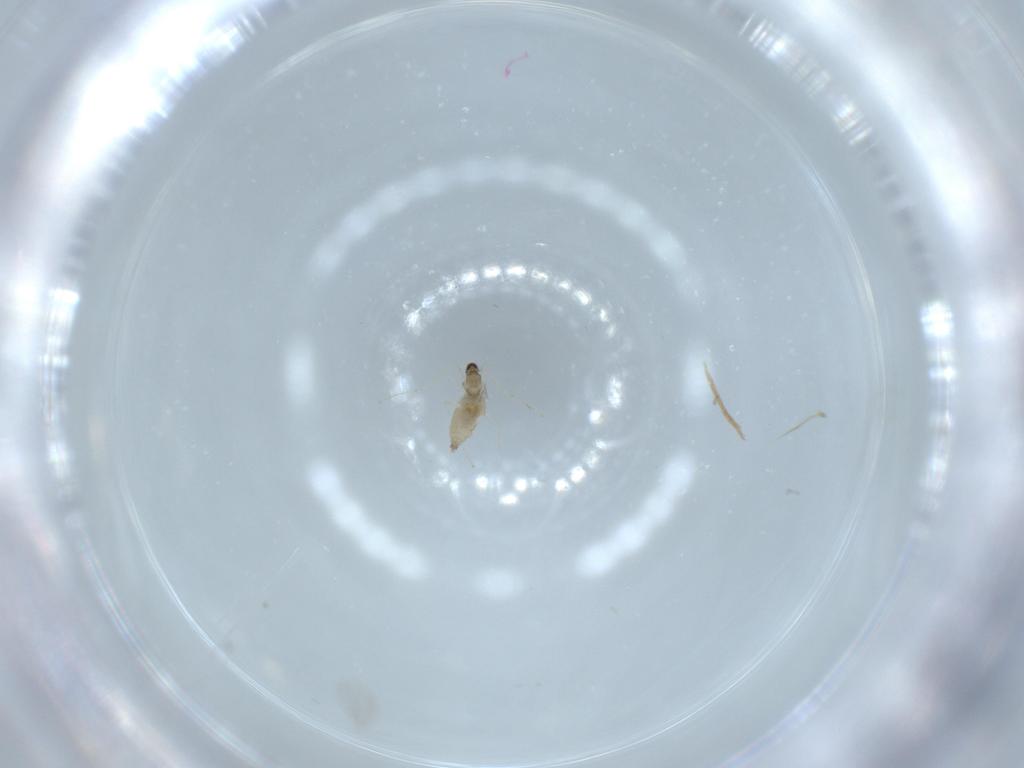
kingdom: Animalia
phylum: Arthropoda
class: Insecta
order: Diptera
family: Cecidomyiidae
